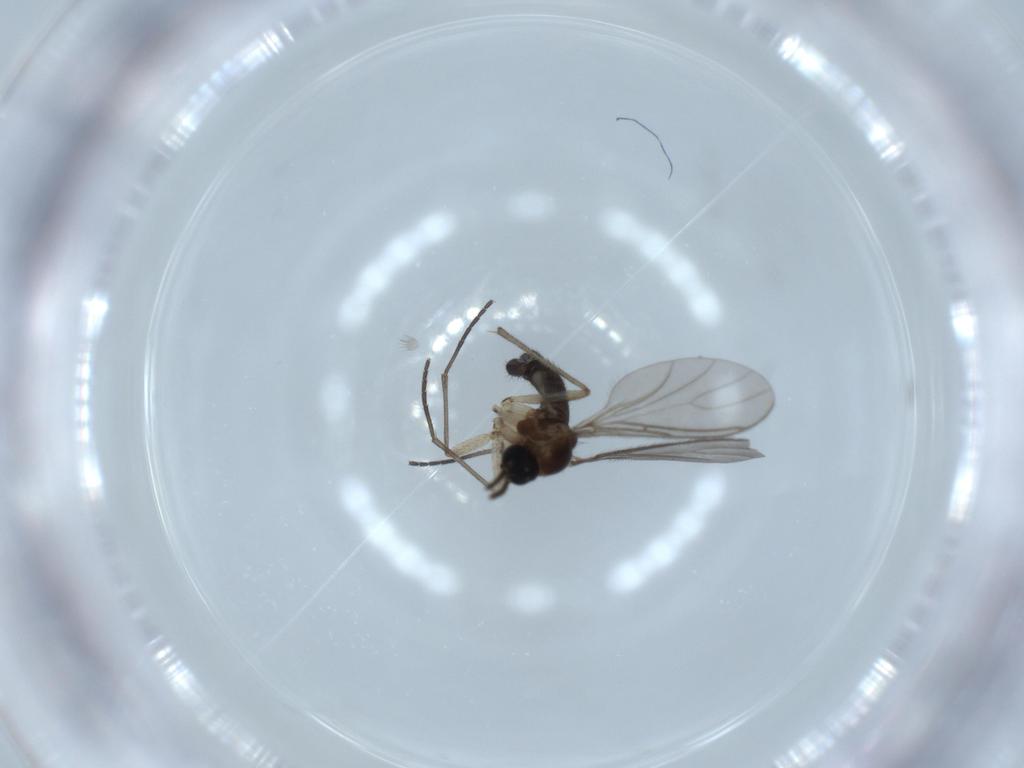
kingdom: Animalia
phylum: Arthropoda
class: Insecta
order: Diptera
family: Sciaridae
